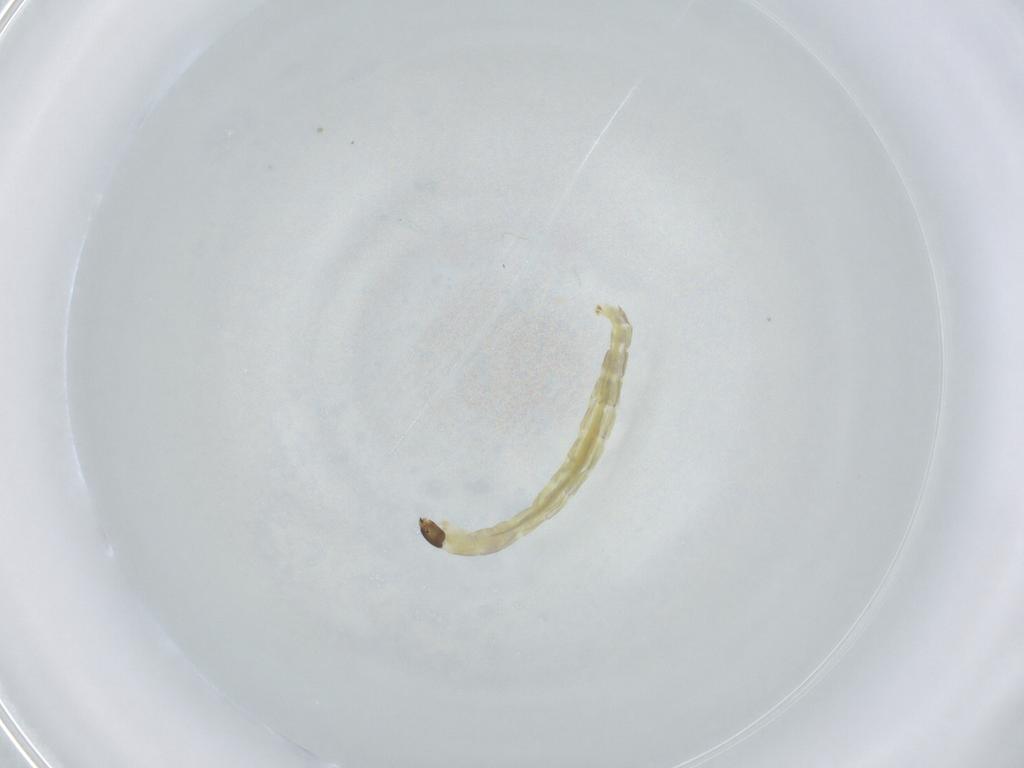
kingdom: Animalia
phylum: Arthropoda
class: Insecta
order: Diptera
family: Chironomidae
